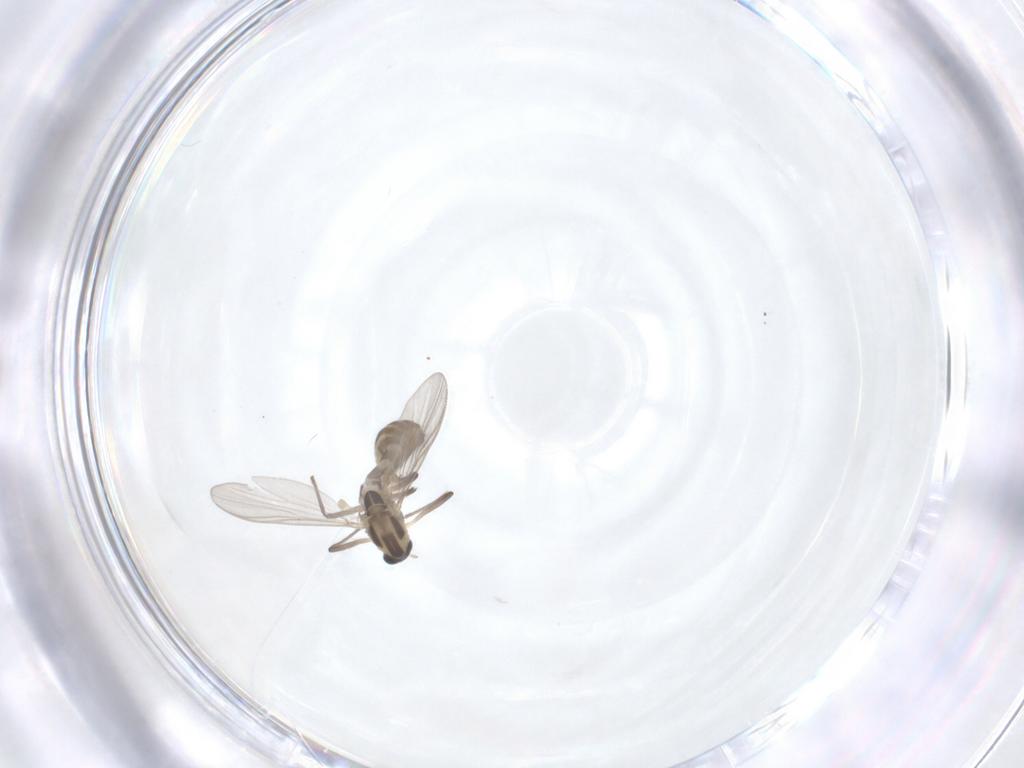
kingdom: Animalia
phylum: Arthropoda
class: Insecta
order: Diptera
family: Chironomidae
